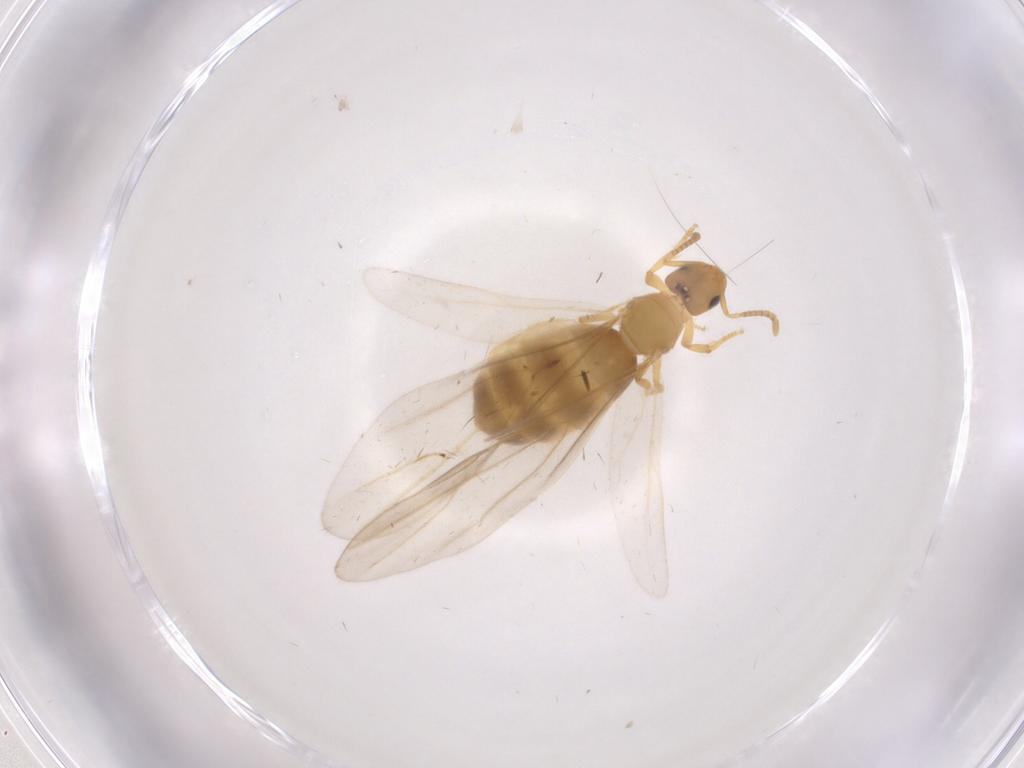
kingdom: Animalia
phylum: Arthropoda
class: Insecta
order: Hymenoptera
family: Formicidae
